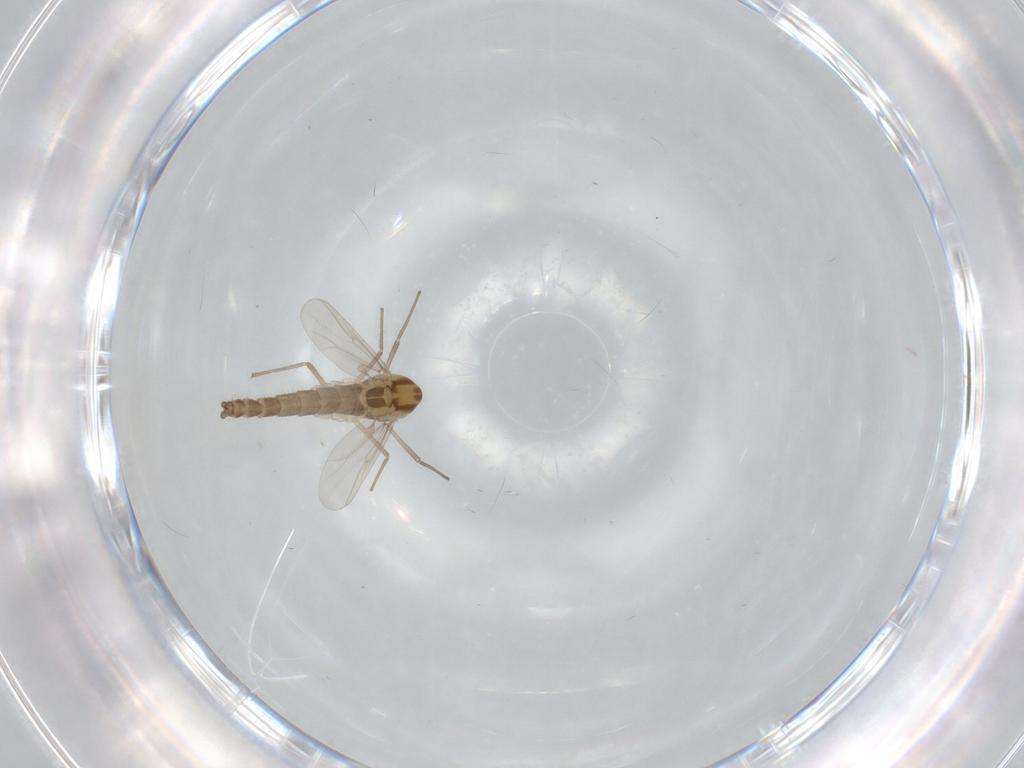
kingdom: Animalia
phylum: Arthropoda
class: Insecta
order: Diptera
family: Chironomidae
